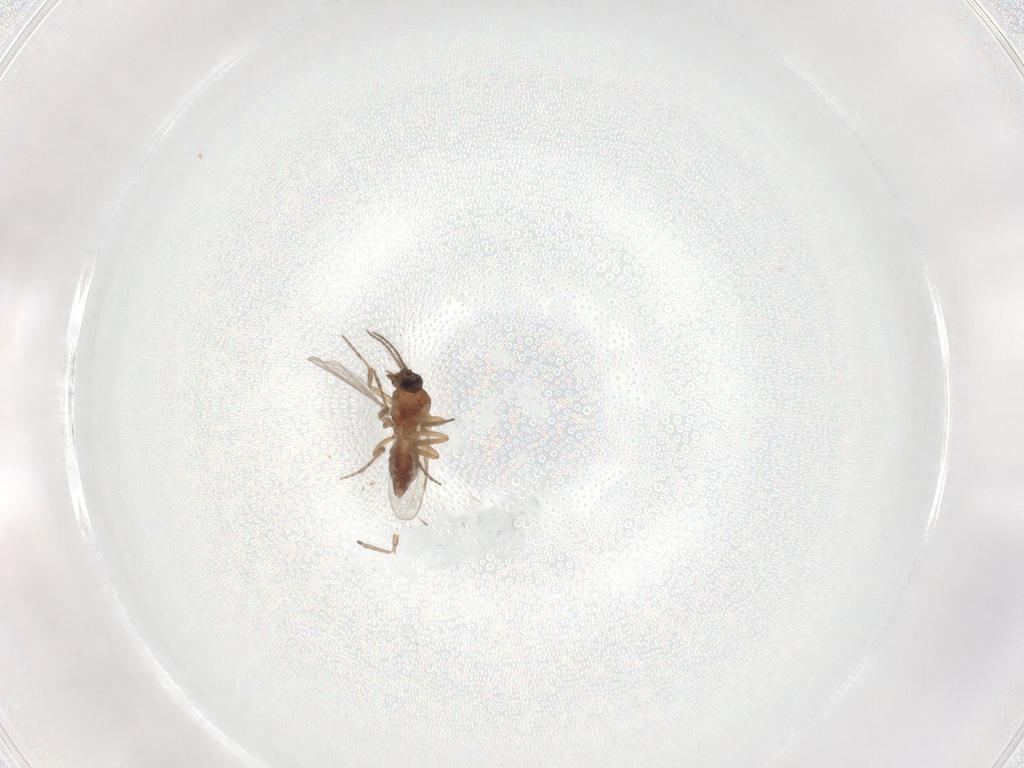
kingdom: Animalia
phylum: Arthropoda
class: Insecta
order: Diptera
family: Chironomidae
